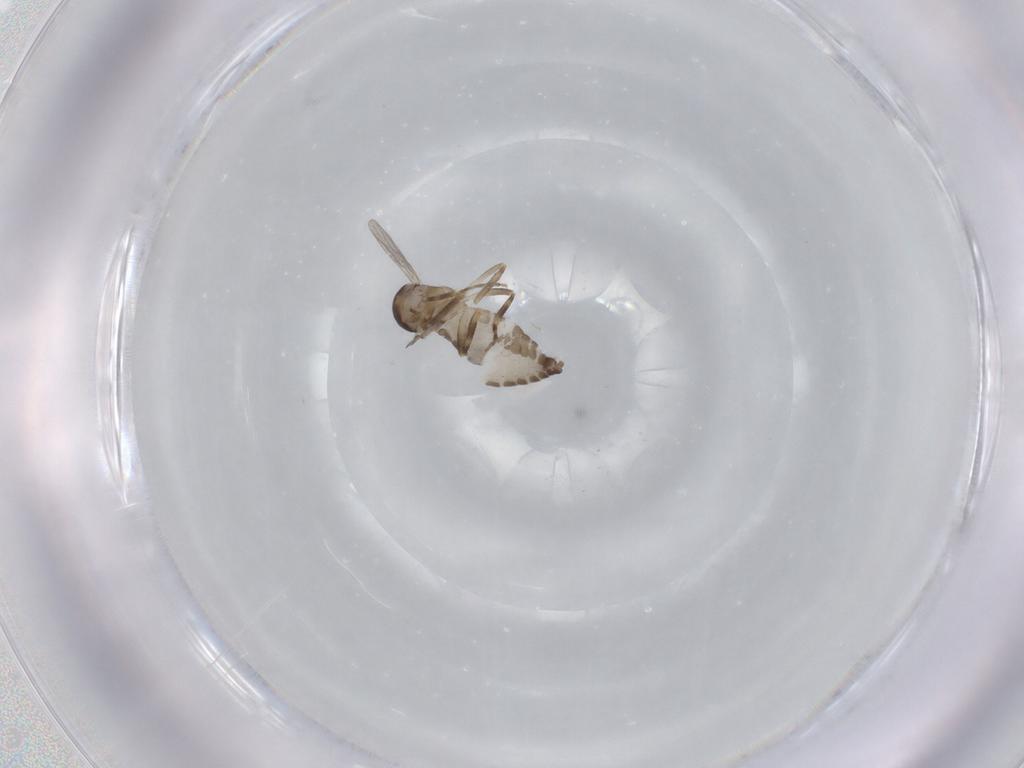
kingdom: Animalia
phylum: Arthropoda
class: Insecta
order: Diptera
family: Ceratopogonidae
